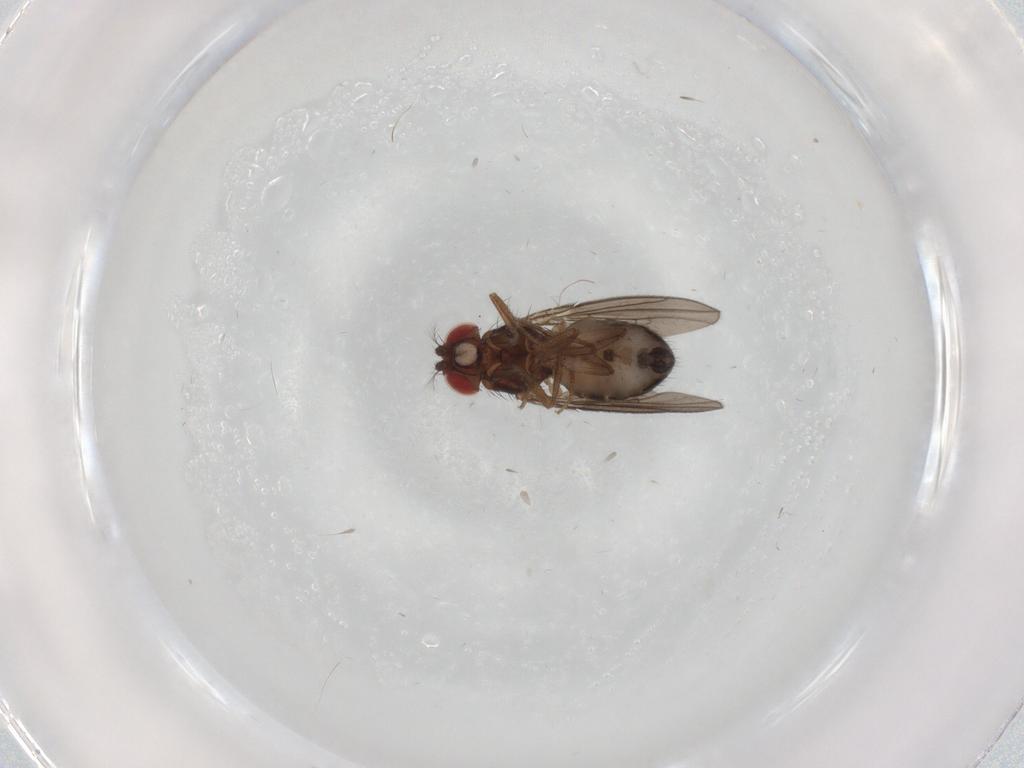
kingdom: Animalia
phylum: Arthropoda
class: Insecta
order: Diptera
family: Drosophilidae
